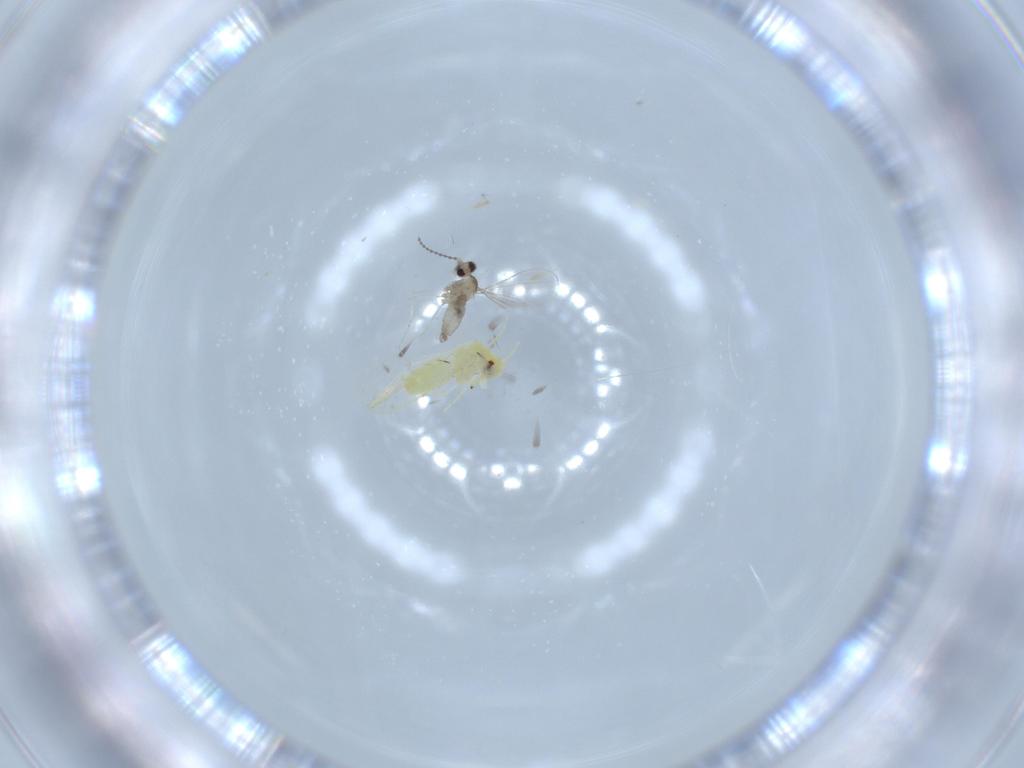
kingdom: Animalia
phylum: Arthropoda
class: Insecta
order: Diptera
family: Cecidomyiidae
